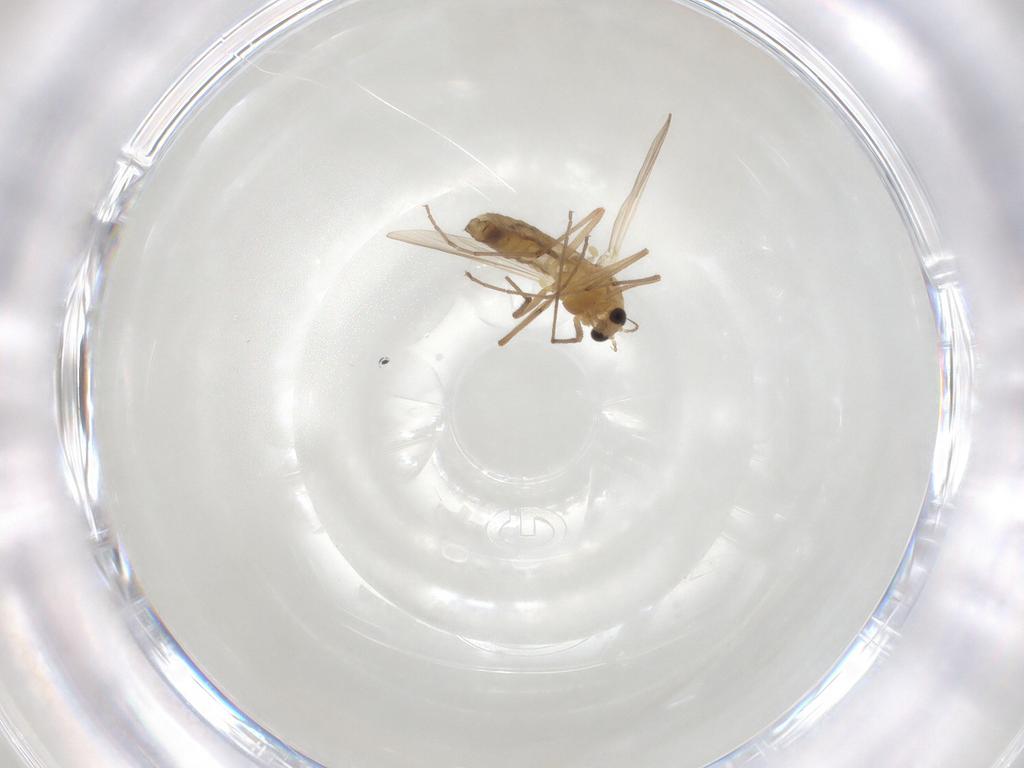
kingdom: Animalia
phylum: Arthropoda
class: Insecta
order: Diptera
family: Chironomidae
